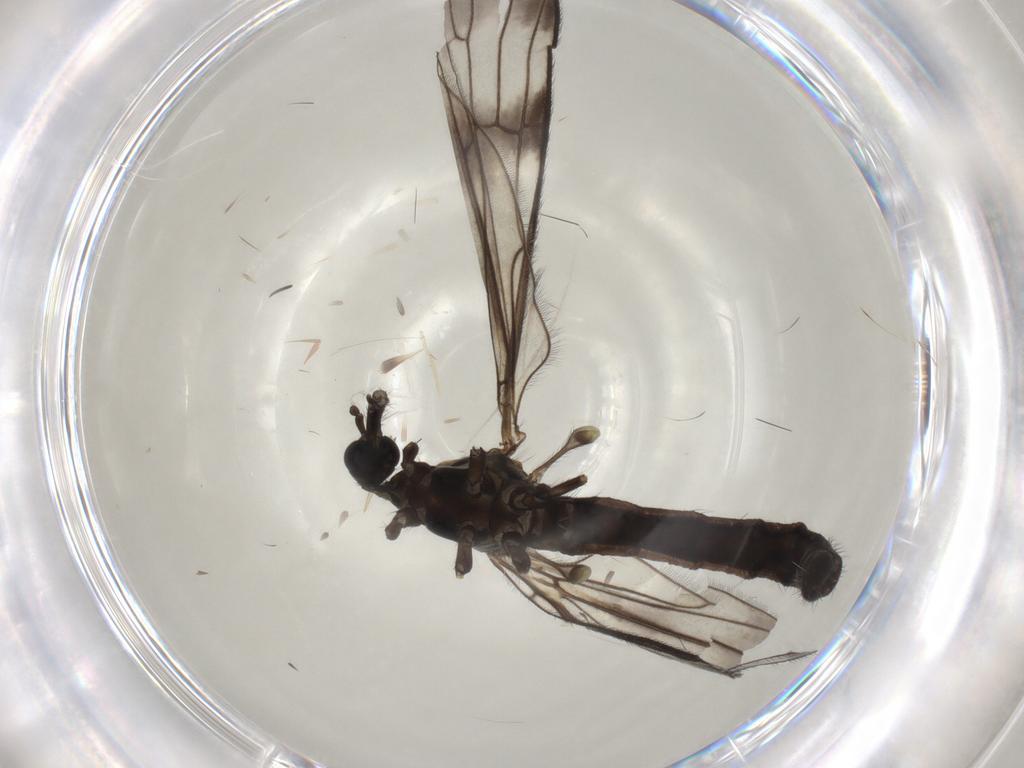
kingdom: Animalia
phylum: Arthropoda
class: Insecta
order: Diptera
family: Limoniidae
